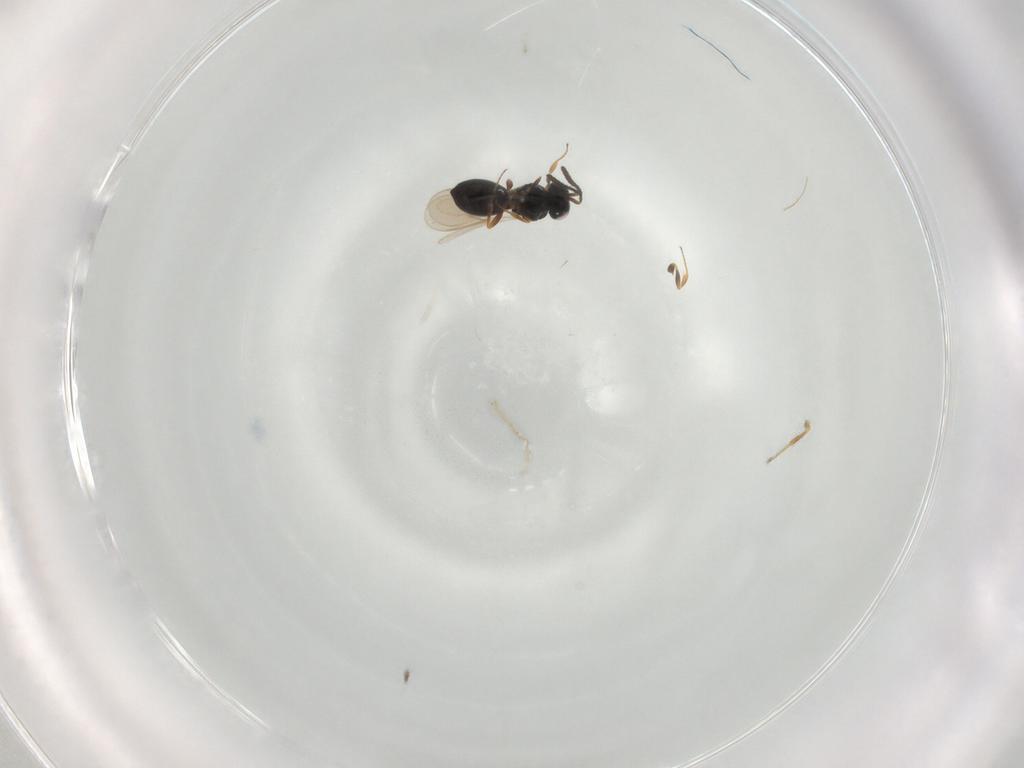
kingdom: Animalia
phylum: Arthropoda
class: Insecta
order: Hymenoptera
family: Scelionidae
